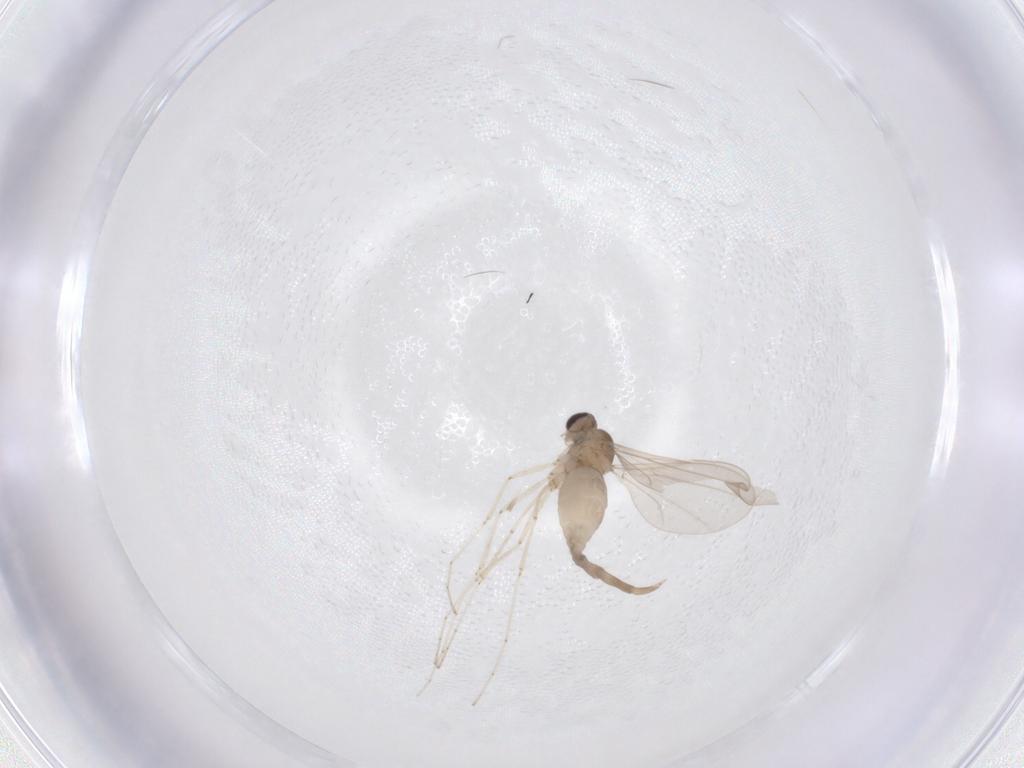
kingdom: Animalia
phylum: Arthropoda
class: Insecta
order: Diptera
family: Cecidomyiidae
